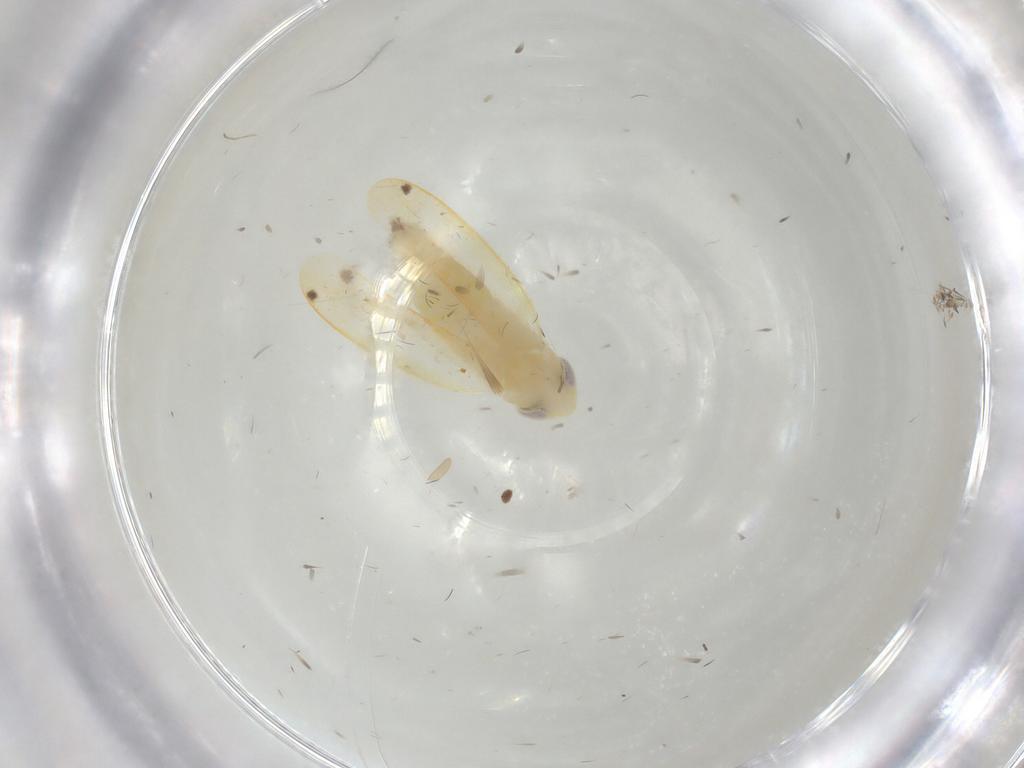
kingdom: Animalia
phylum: Arthropoda
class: Insecta
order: Hemiptera
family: Cicadellidae
